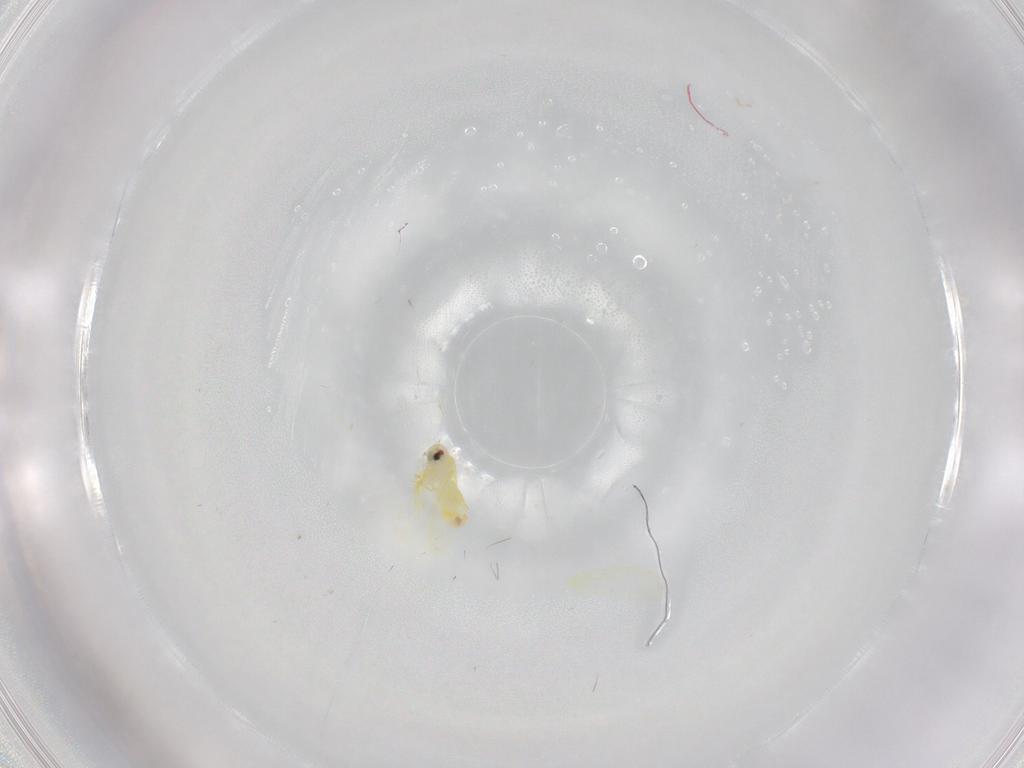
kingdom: Animalia
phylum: Arthropoda
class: Insecta
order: Hemiptera
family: Aleyrodidae
